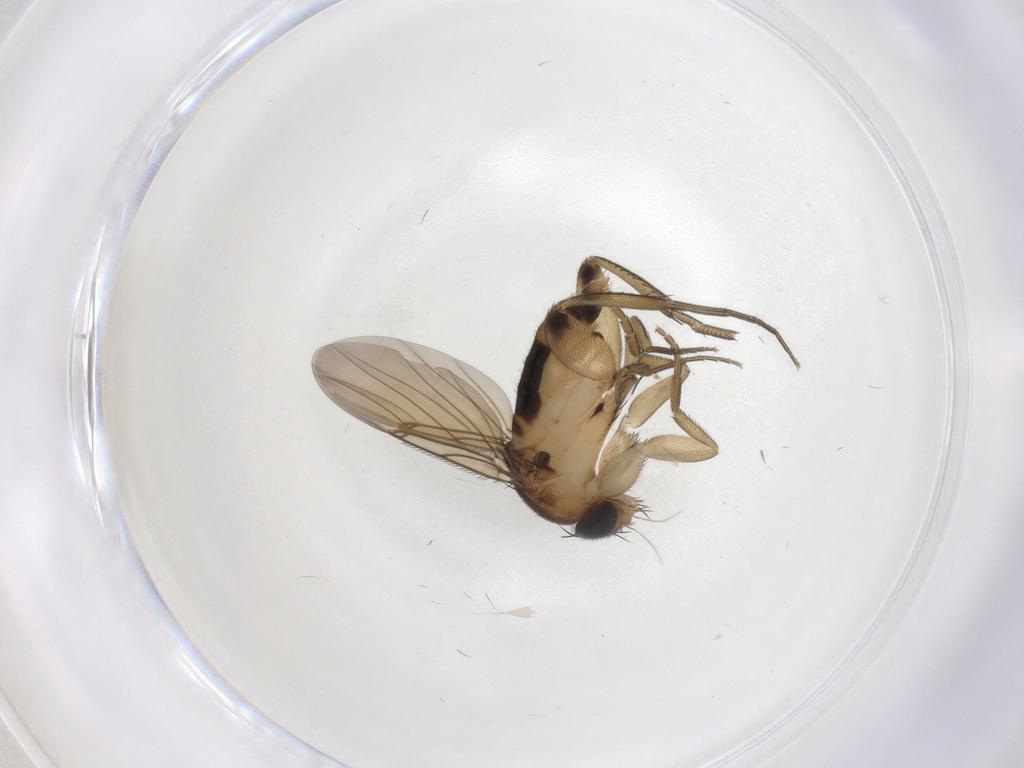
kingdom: Animalia
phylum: Arthropoda
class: Insecta
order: Diptera
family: Phoridae
